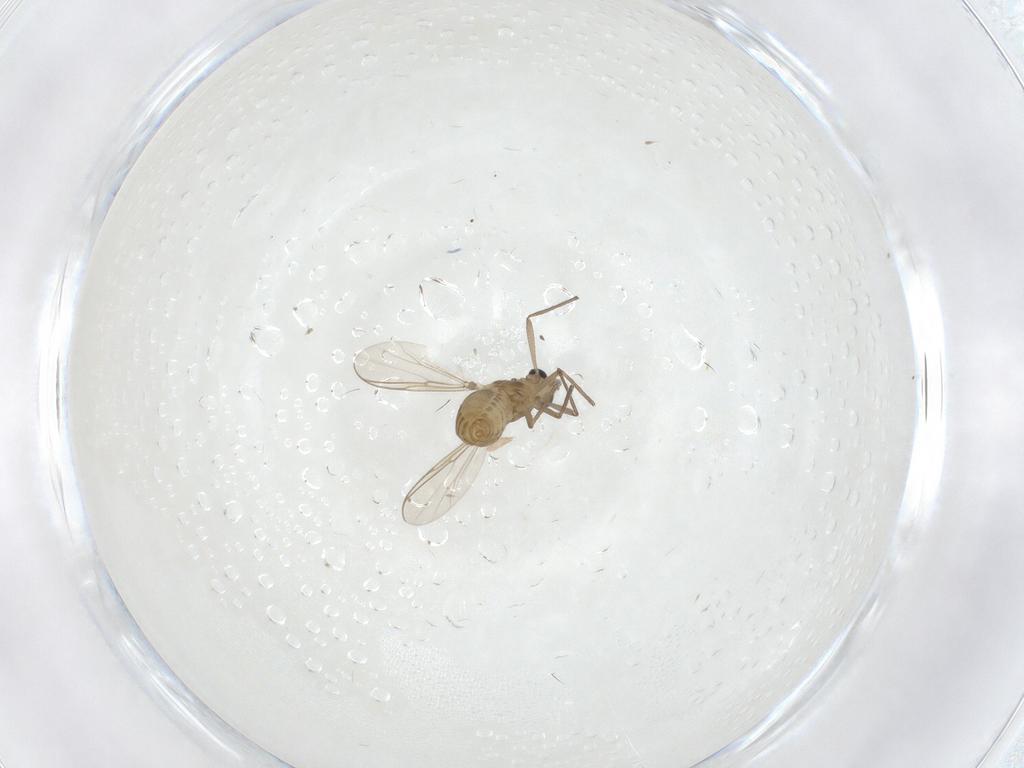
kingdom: Animalia
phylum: Arthropoda
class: Insecta
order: Diptera
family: Chironomidae
